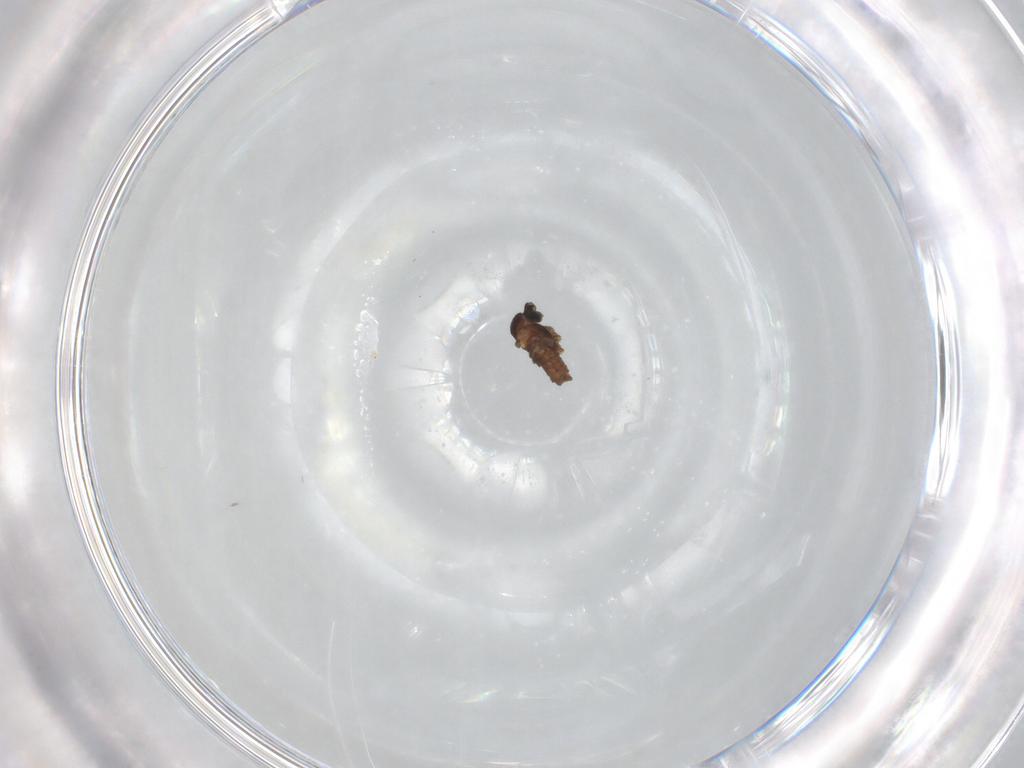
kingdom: Animalia
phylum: Arthropoda
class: Insecta
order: Diptera
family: Cecidomyiidae
